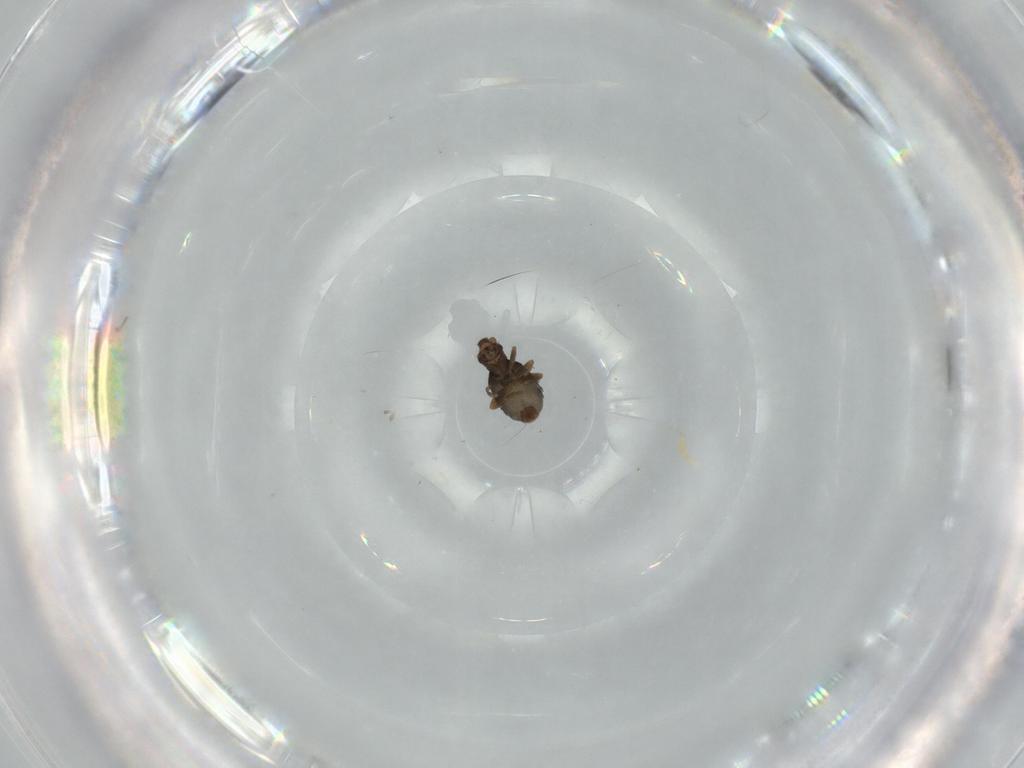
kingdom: Animalia
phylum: Arthropoda
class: Insecta
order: Diptera
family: Phoridae
